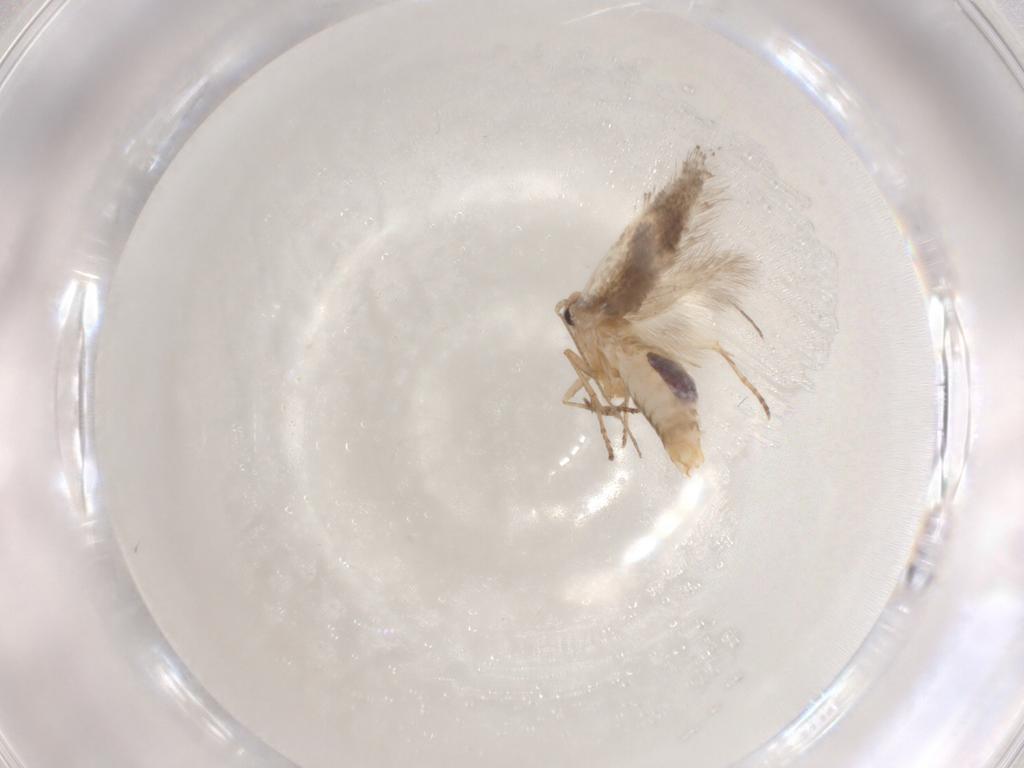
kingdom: Animalia
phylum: Arthropoda
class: Insecta
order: Lepidoptera
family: Bucculatricidae
